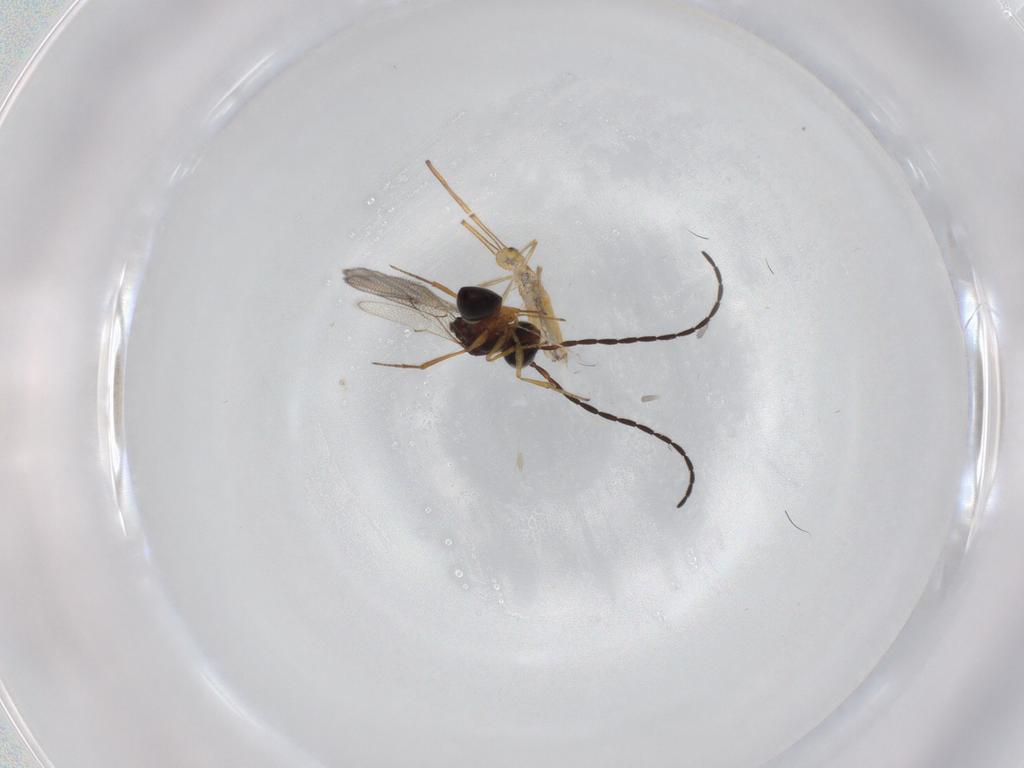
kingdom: Animalia
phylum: Arthropoda
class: Insecta
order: Hymenoptera
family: Figitidae
